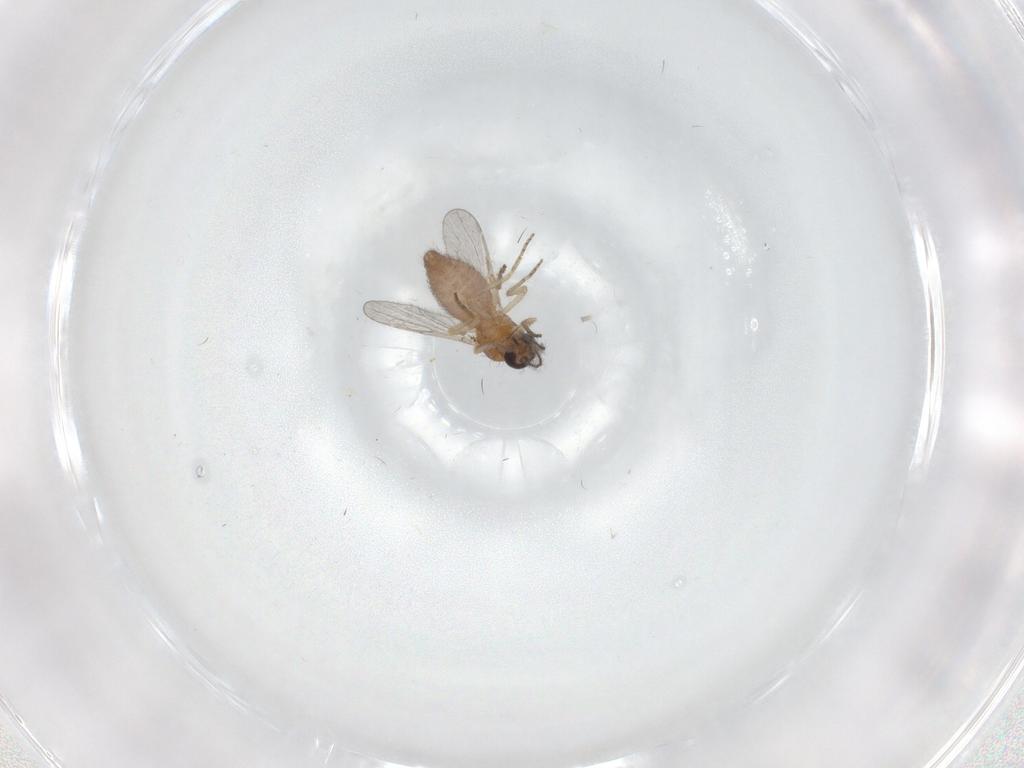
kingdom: Animalia
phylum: Arthropoda
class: Insecta
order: Diptera
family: Ceratopogonidae
